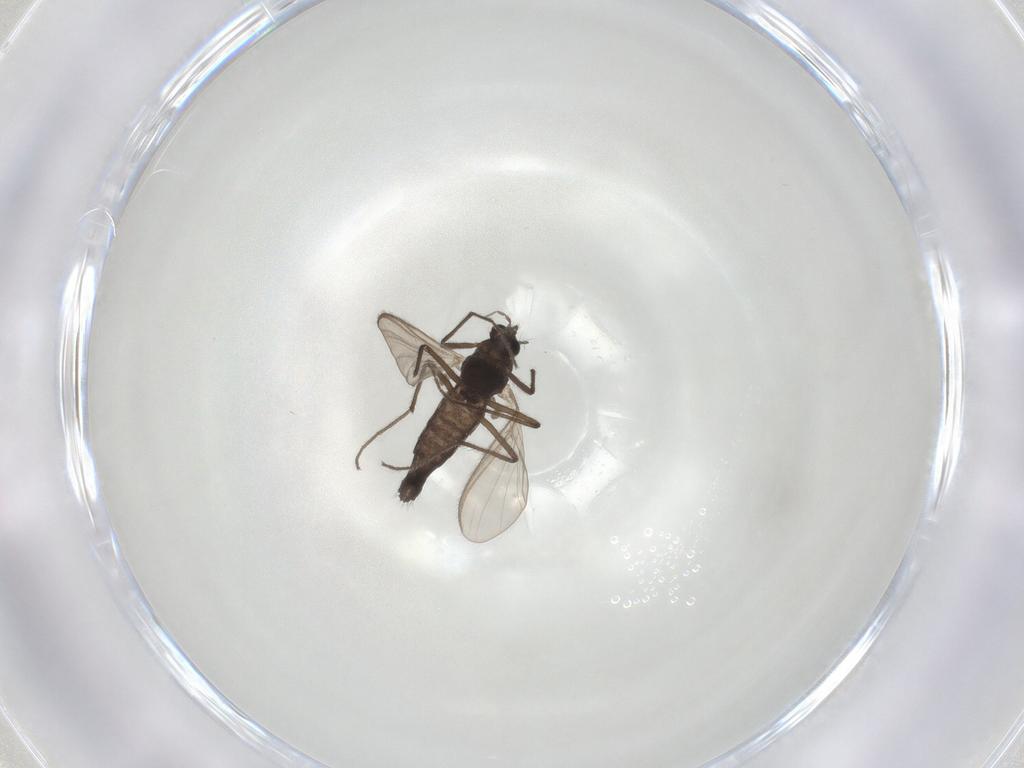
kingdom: Animalia
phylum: Arthropoda
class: Insecta
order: Diptera
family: Chironomidae
